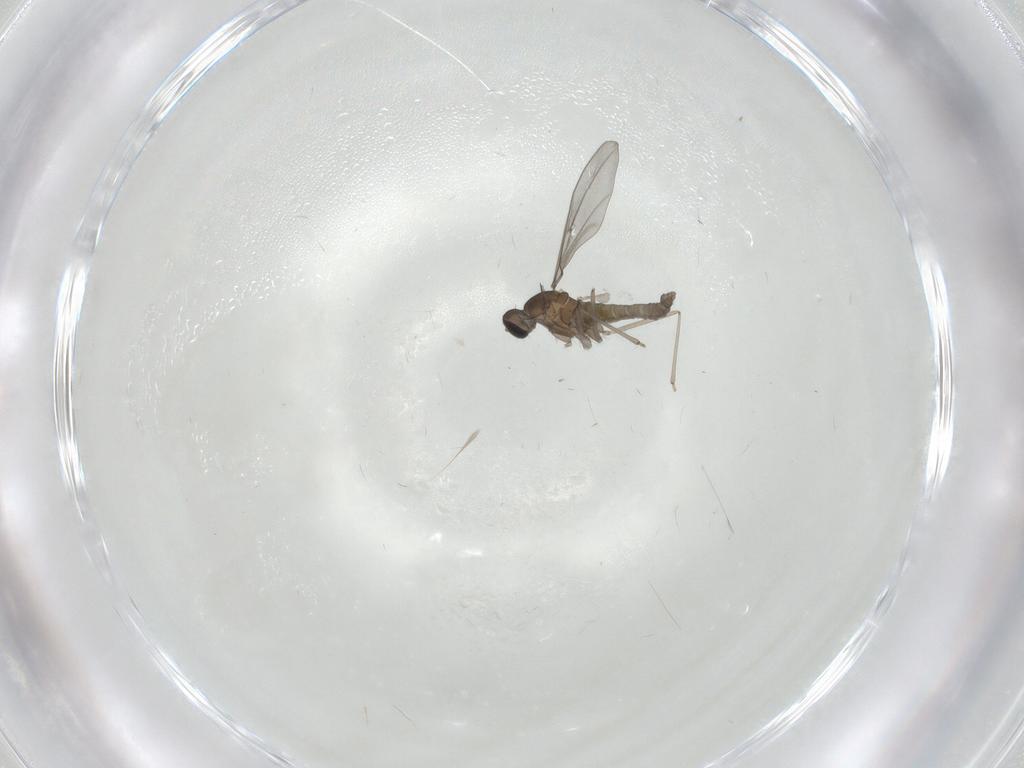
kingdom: Animalia
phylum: Arthropoda
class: Insecta
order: Diptera
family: Cecidomyiidae
